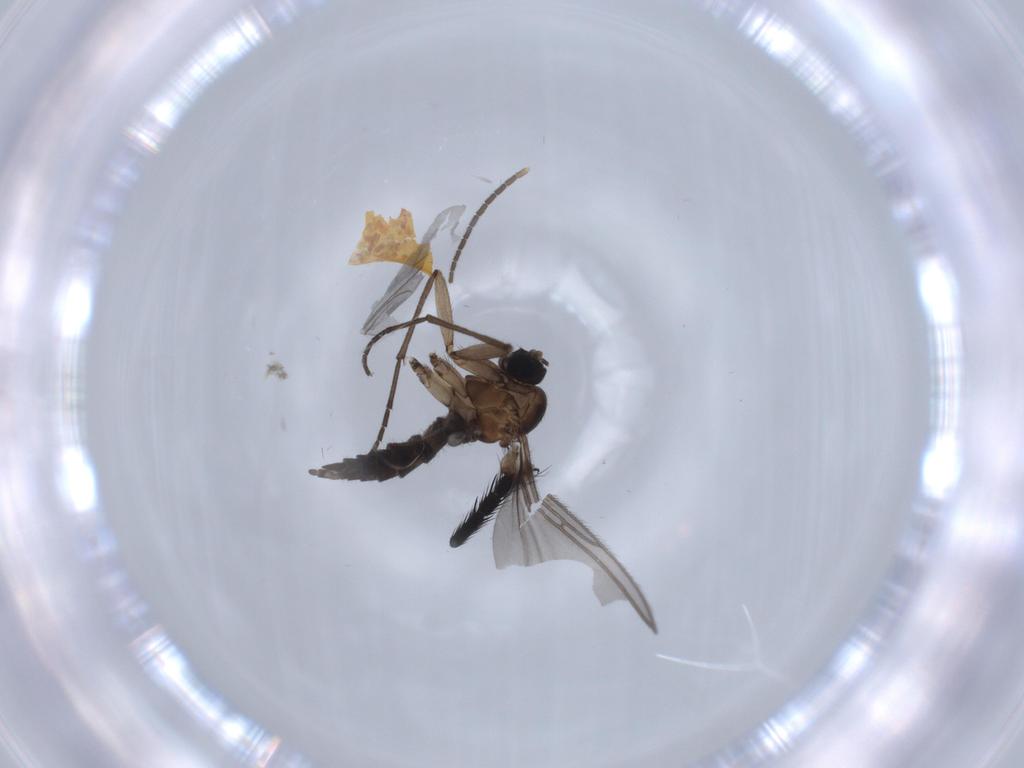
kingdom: Animalia
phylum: Arthropoda
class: Insecta
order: Diptera
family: Sciaridae
